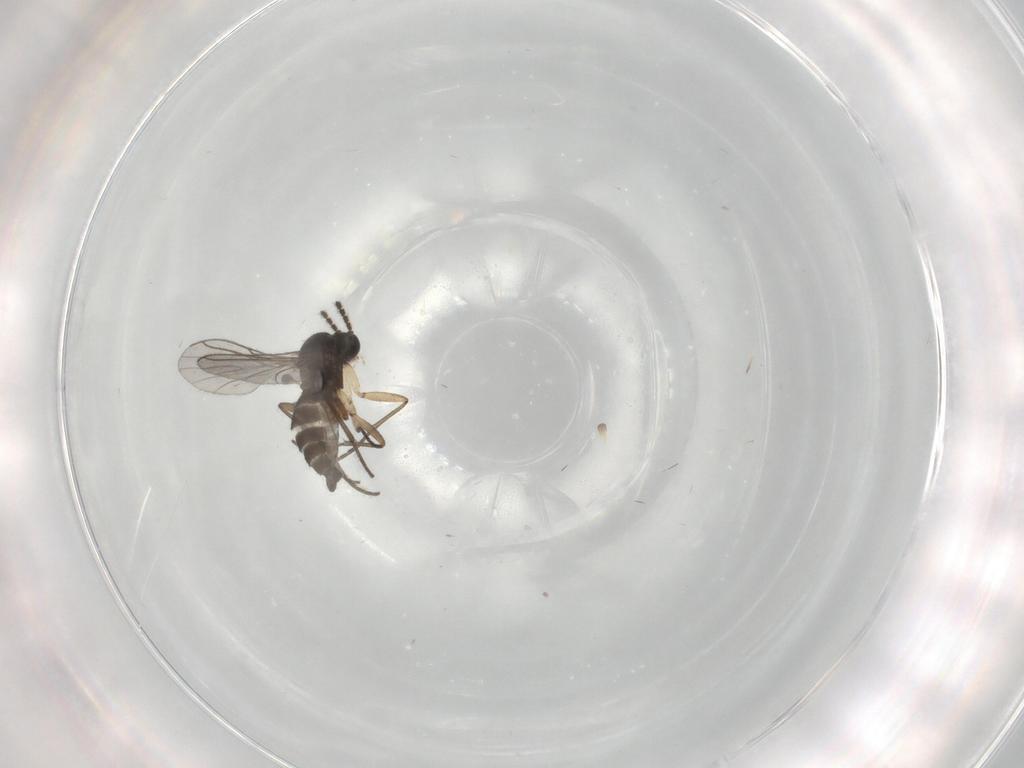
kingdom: Animalia
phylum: Arthropoda
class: Insecta
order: Diptera
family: Sciaridae
